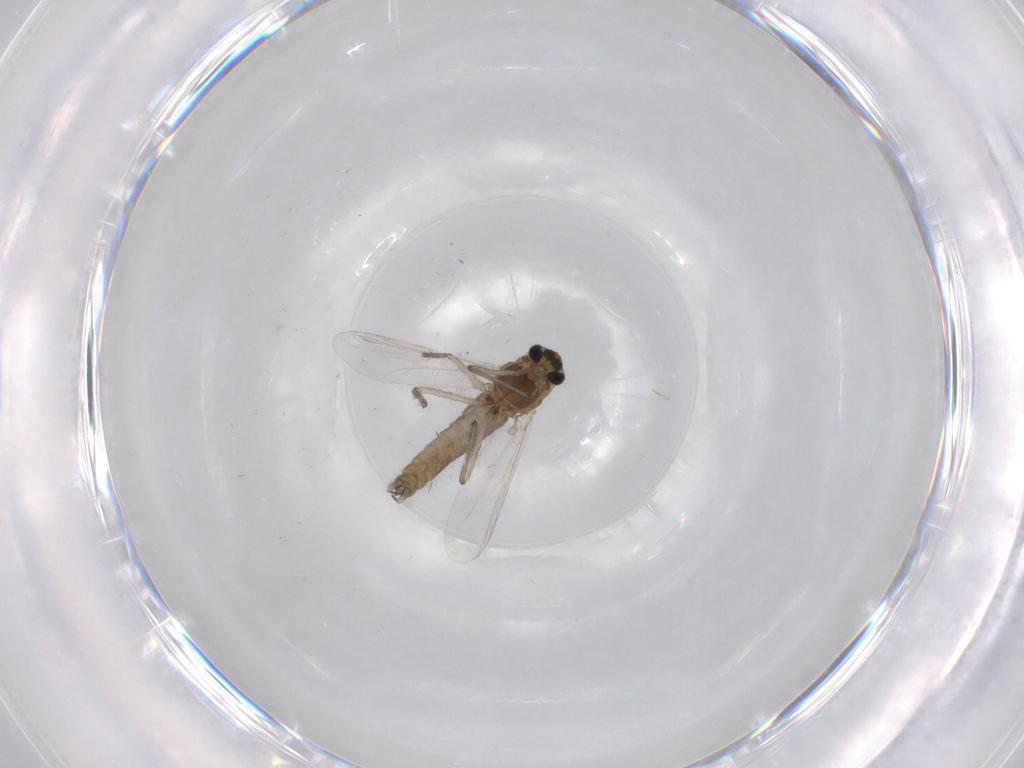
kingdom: Animalia
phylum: Arthropoda
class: Insecta
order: Diptera
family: Chironomidae
